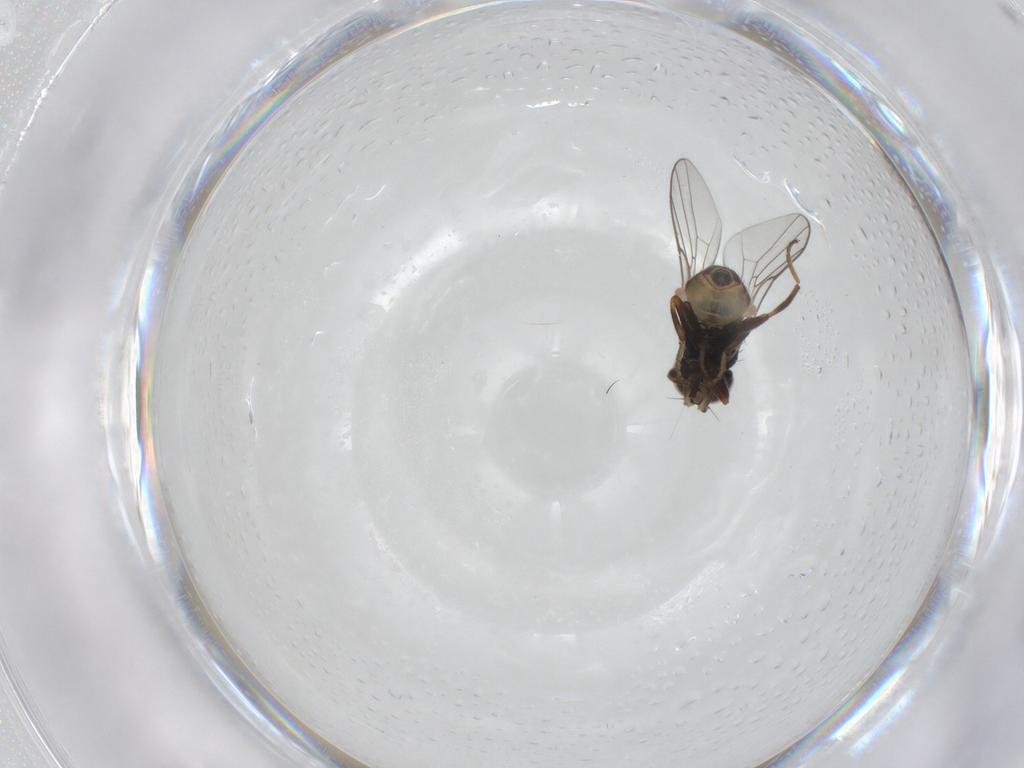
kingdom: Animalia
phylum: Arthropoda
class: Insecta
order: Diptera
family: Chloropidae
